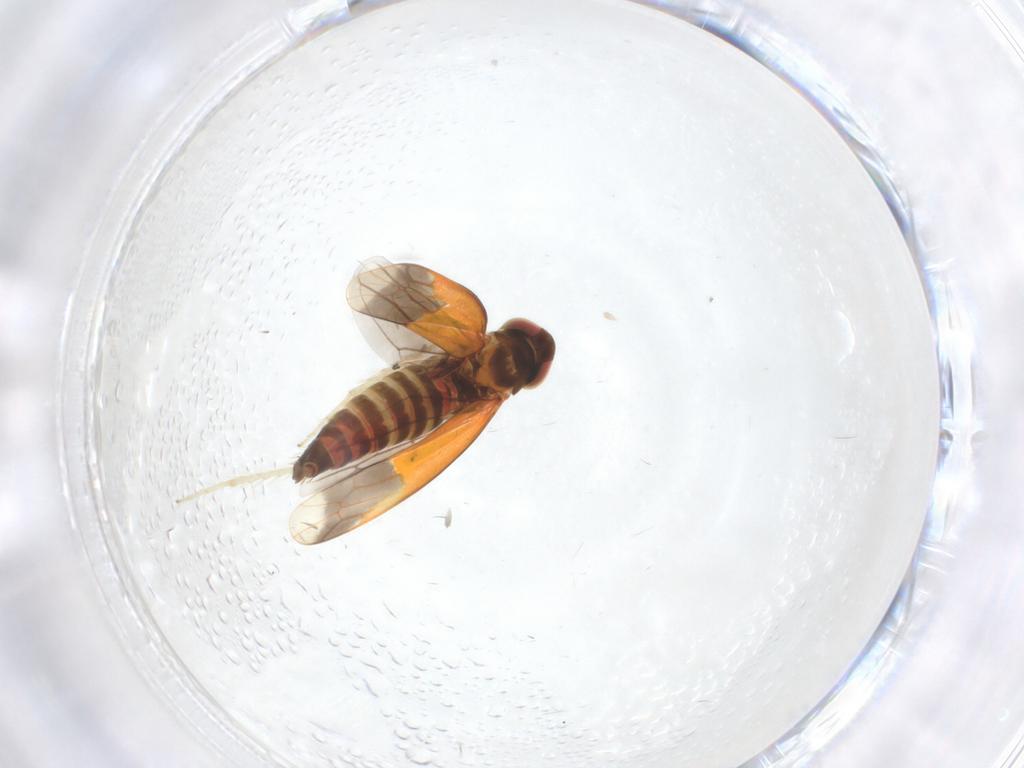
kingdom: Animalia
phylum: Arthropoda
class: Insecta
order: Hemiptera
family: Cicadellidae
